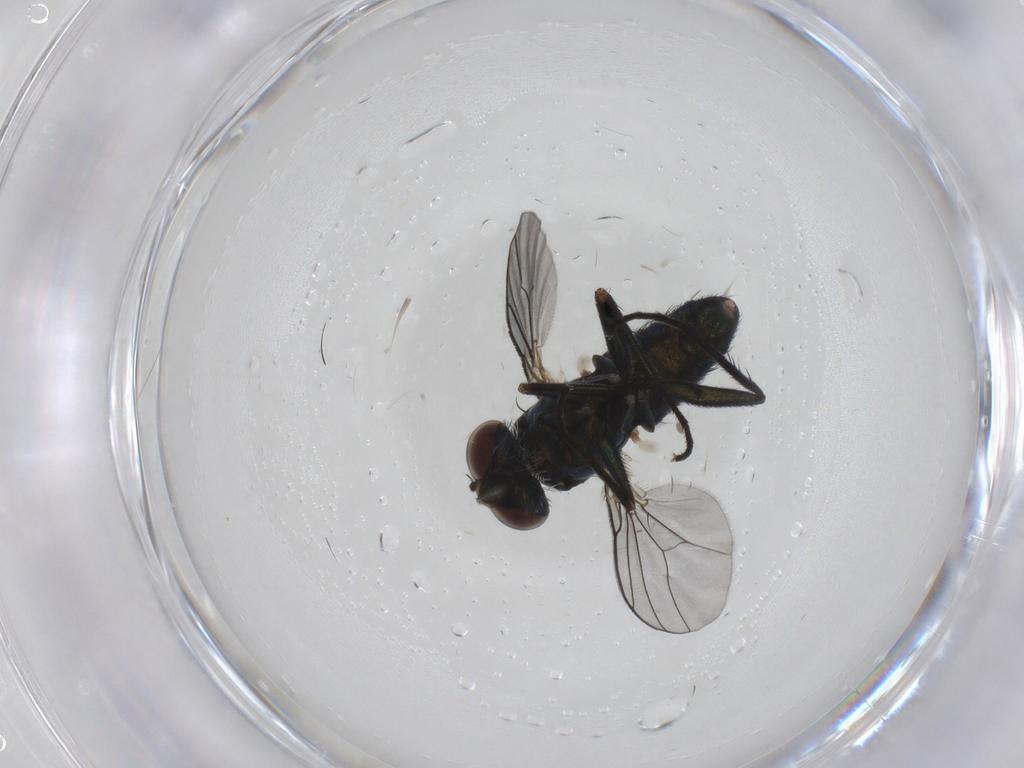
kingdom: Animalia
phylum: Arthropoda
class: Insecta
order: Diptera
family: Dolichopodidae
